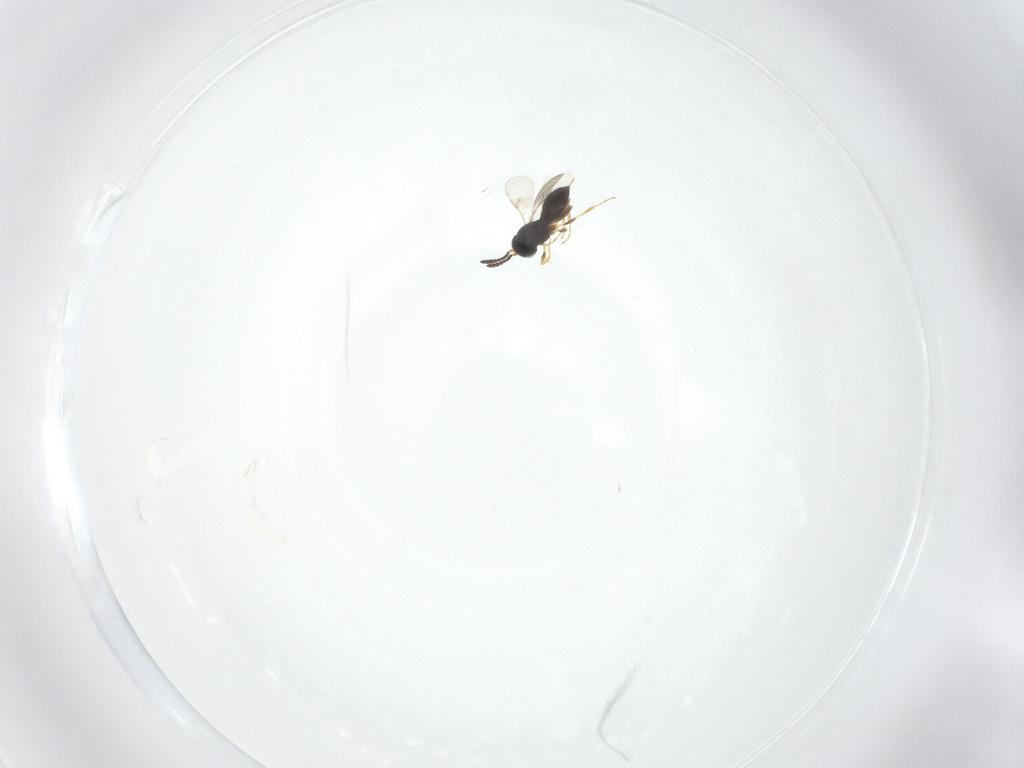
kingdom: Animalia
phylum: Arthropoda
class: Insecta
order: Hymenoptera
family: Scelionidae
